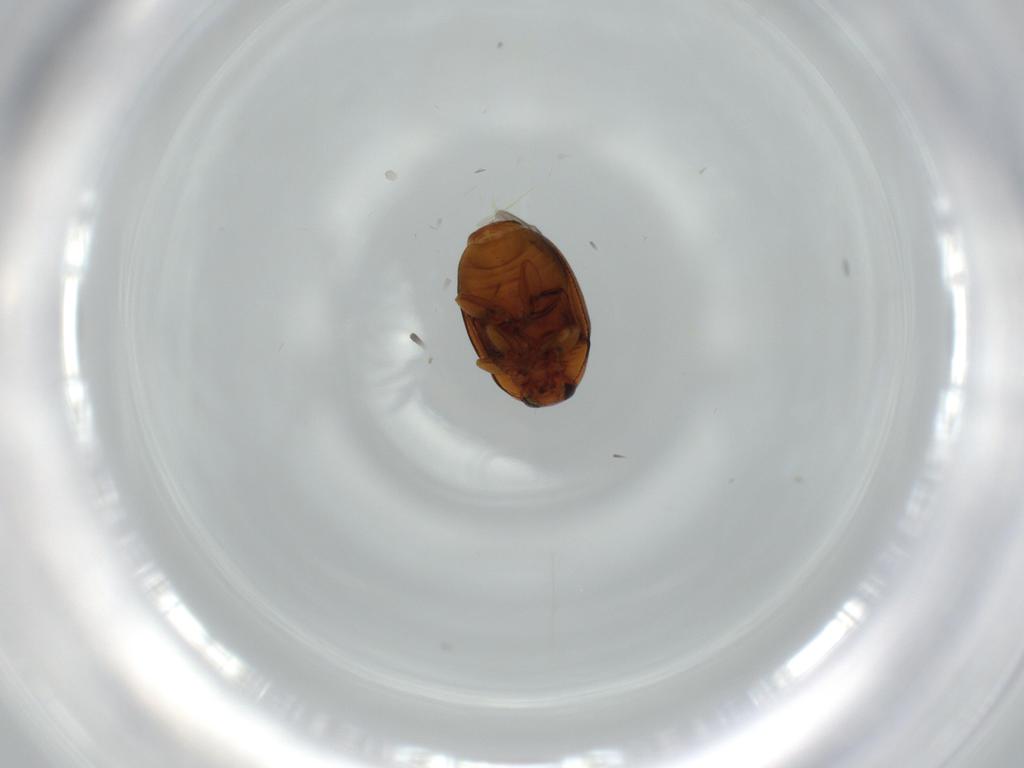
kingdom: Animalia
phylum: Arthropoda
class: Insecta
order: Coleoptera
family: Chrysomelidae
